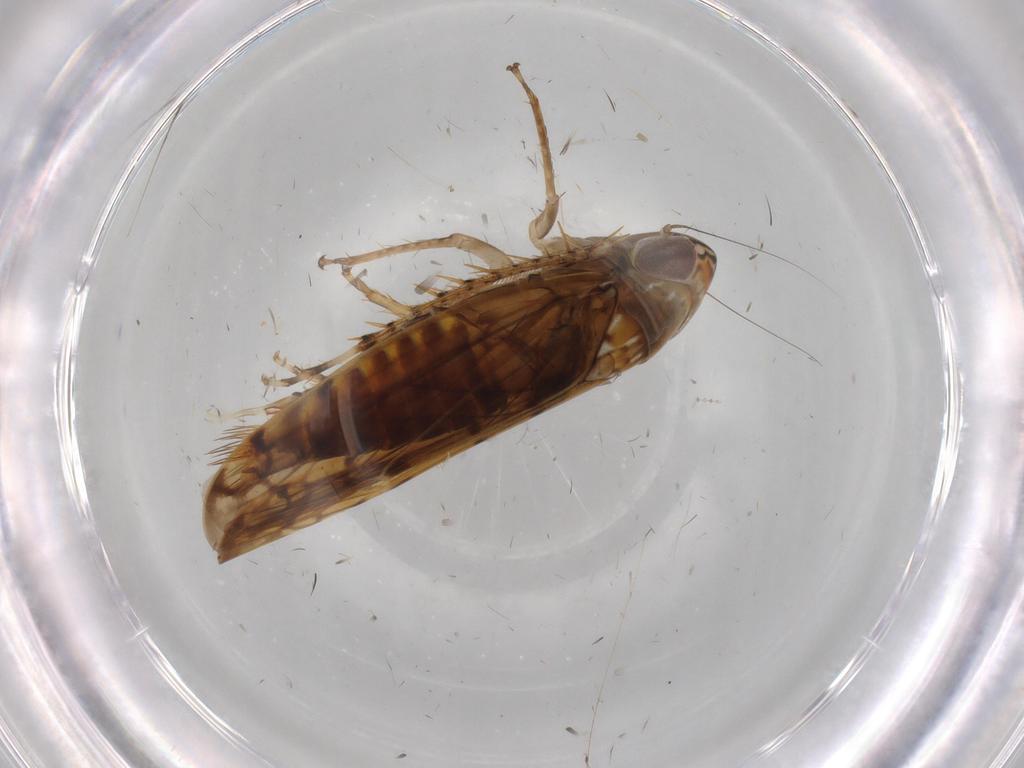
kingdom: Animalia
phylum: Arthropoda
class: Insecta
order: Hemiptera
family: Cicadellidae
